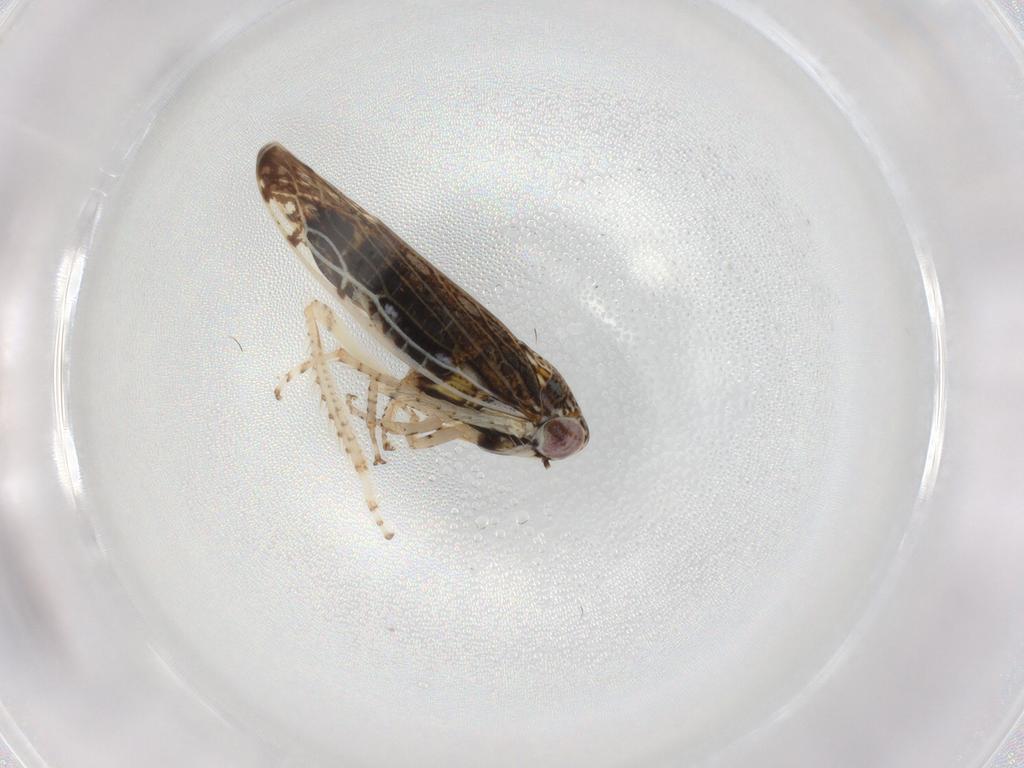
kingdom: Animalia
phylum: Arthropoda
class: Insecta
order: Hemiptera
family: Cicadellidae
